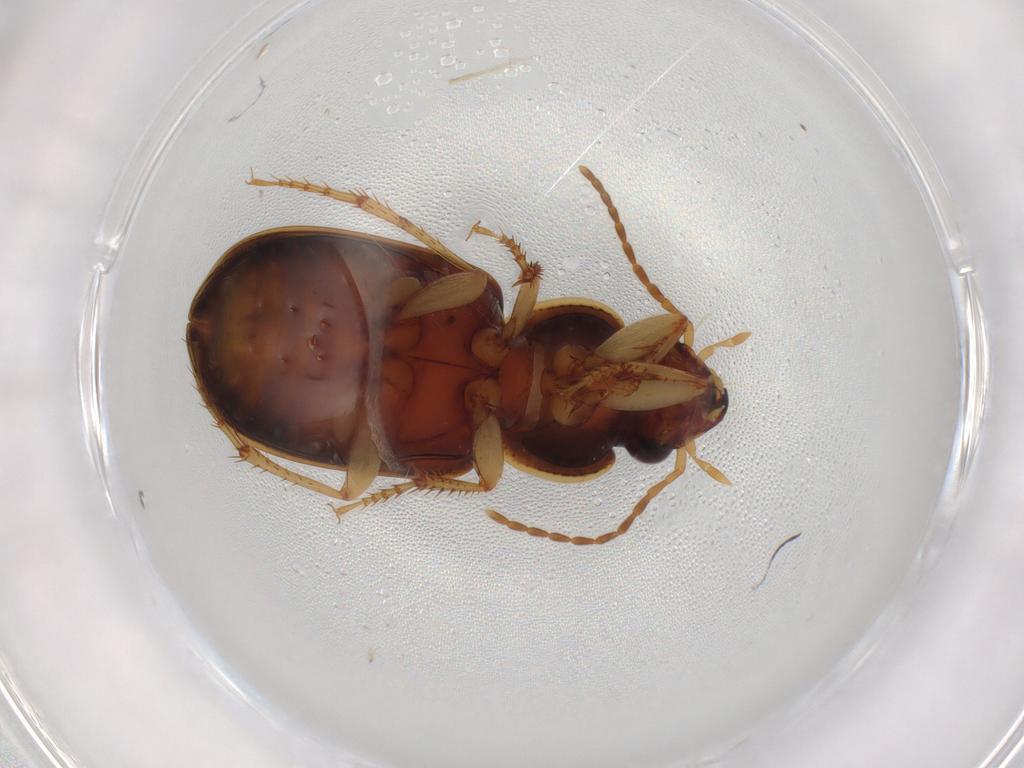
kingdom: Animalia
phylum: Arthropoda
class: Insecta
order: Coleoptera
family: Carabidae
